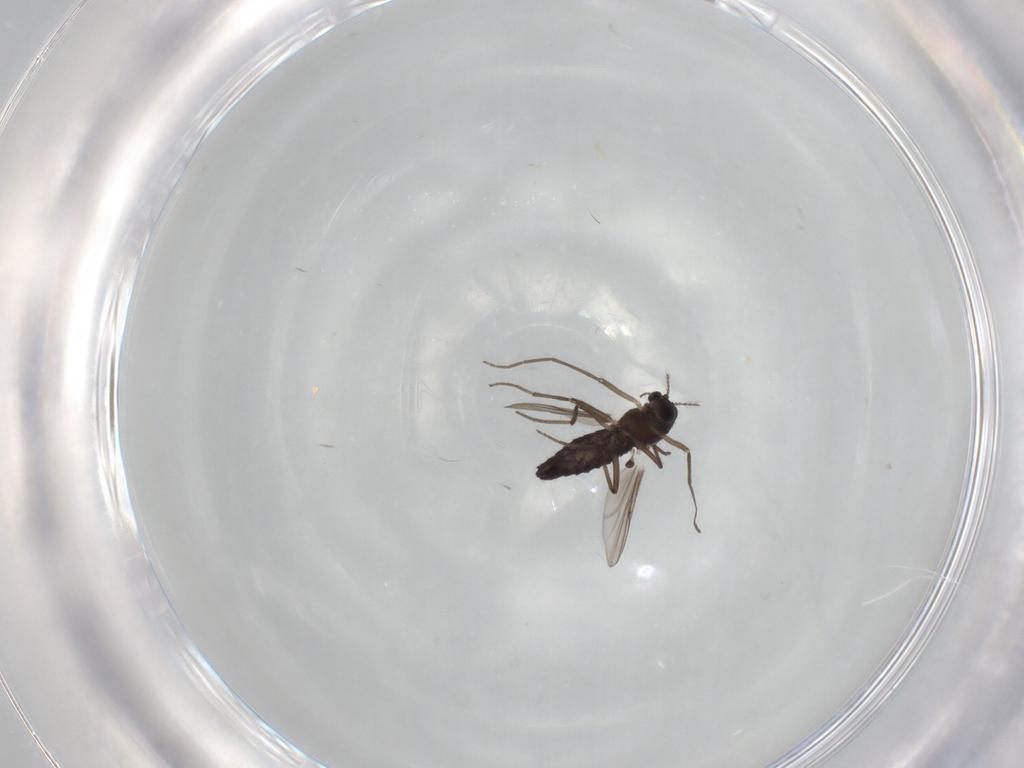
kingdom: Animalia
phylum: Arthropoda
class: Insecta
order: Diptera
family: Chironomidae
